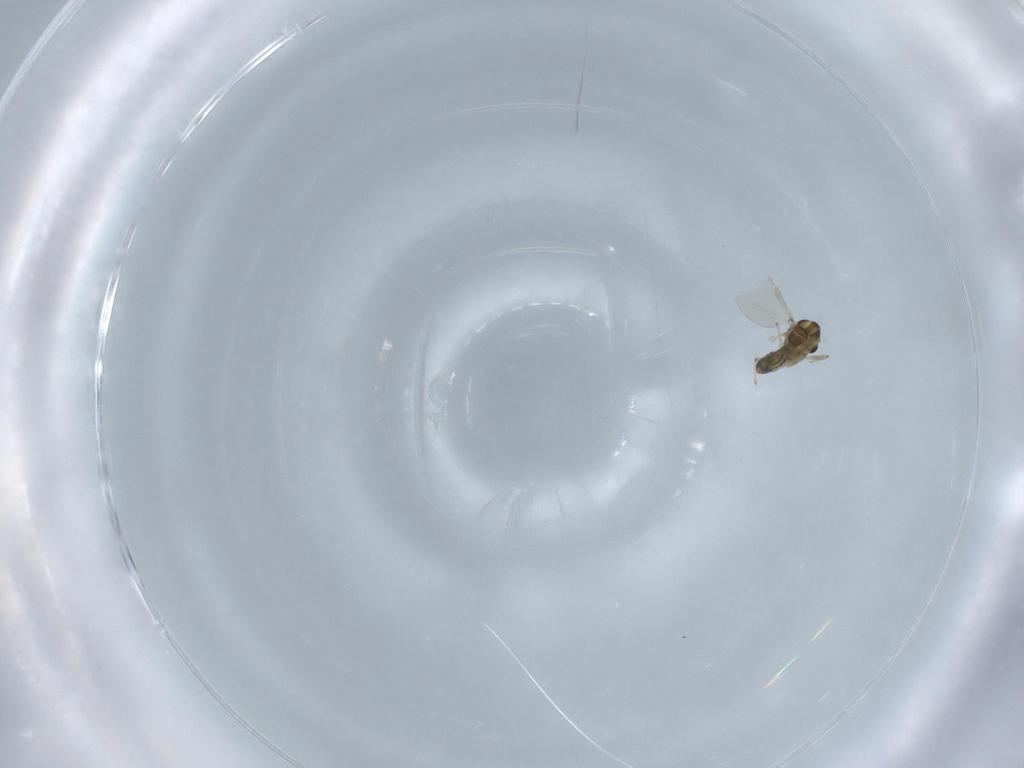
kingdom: Animalia
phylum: Arthropoda
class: Insecta
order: Diptera
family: Chironomidae
